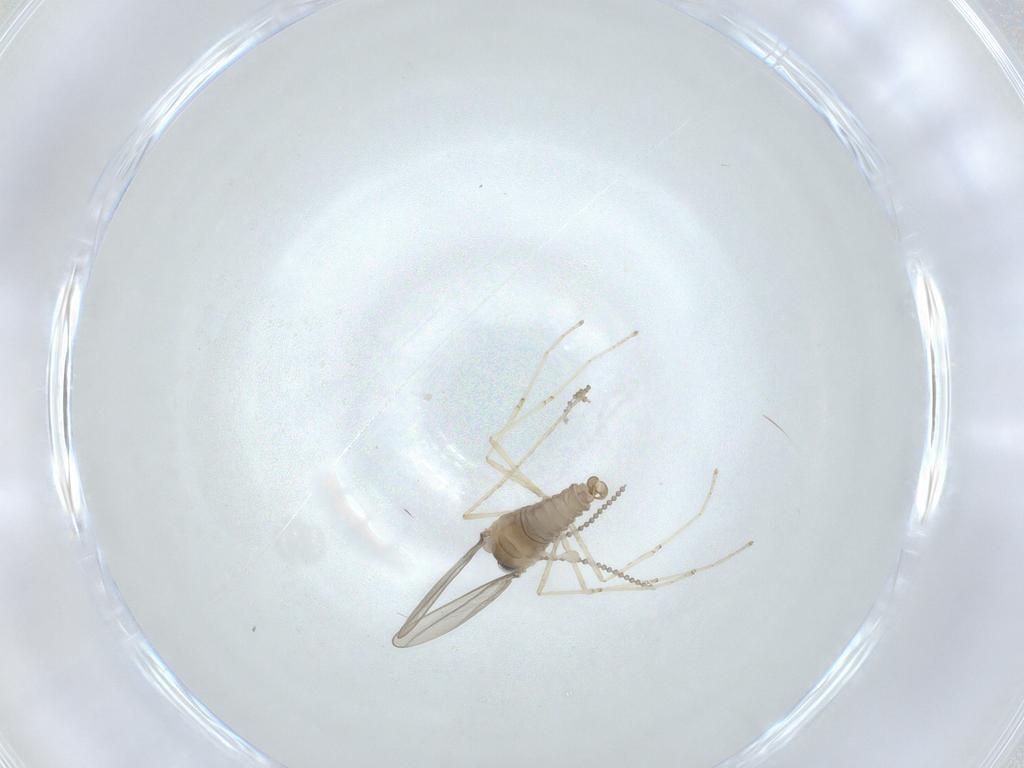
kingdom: Animalia
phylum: Arthropoda
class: Insecta
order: Diptera
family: Cecidomyiidae
